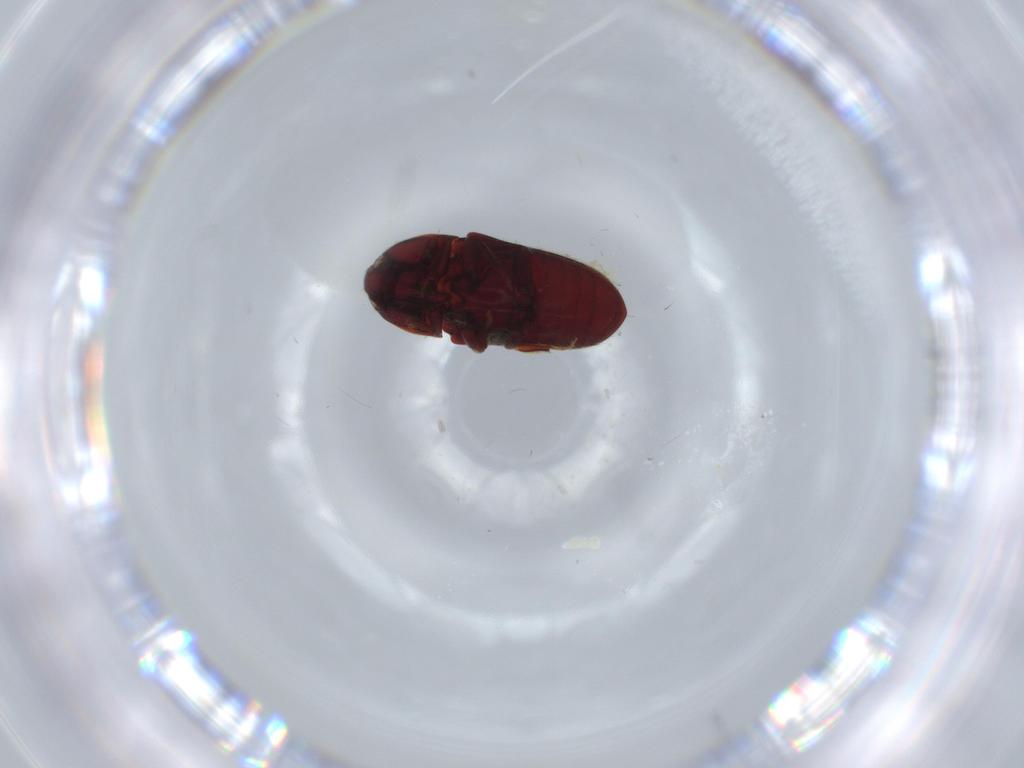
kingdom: Animalia
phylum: Arthropoda
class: Insecta
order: Coleoptera
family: Throscidae
